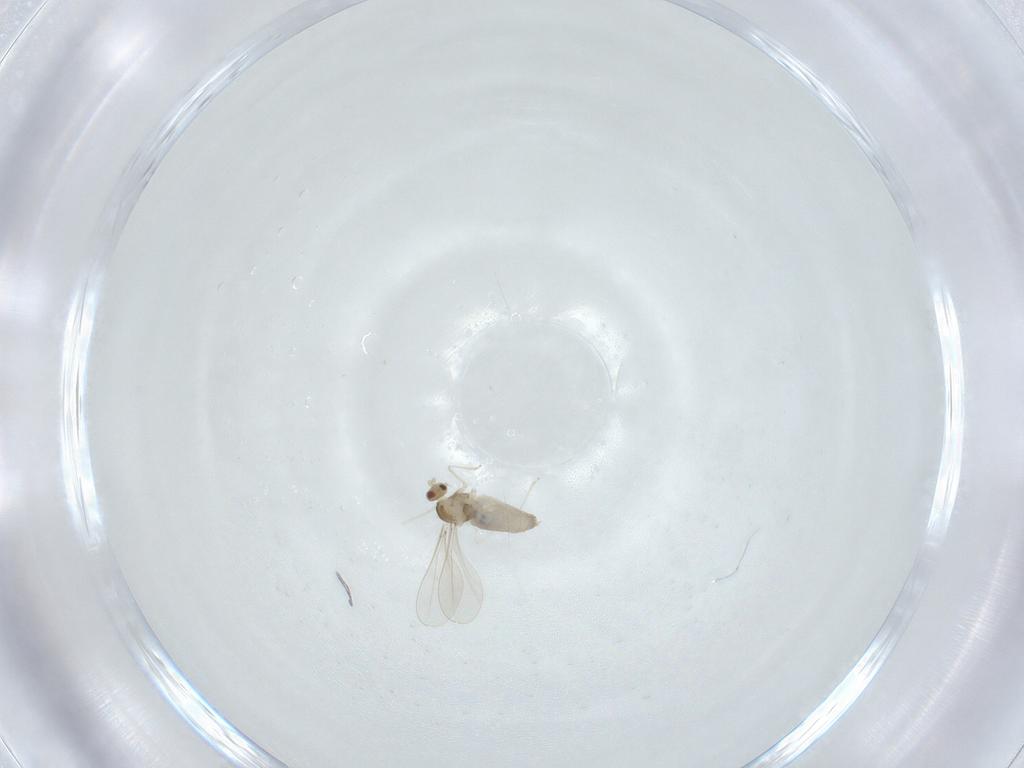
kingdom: Animalia
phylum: Arthropoda
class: Insecta
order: Diptera
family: Cecidomyiidae
